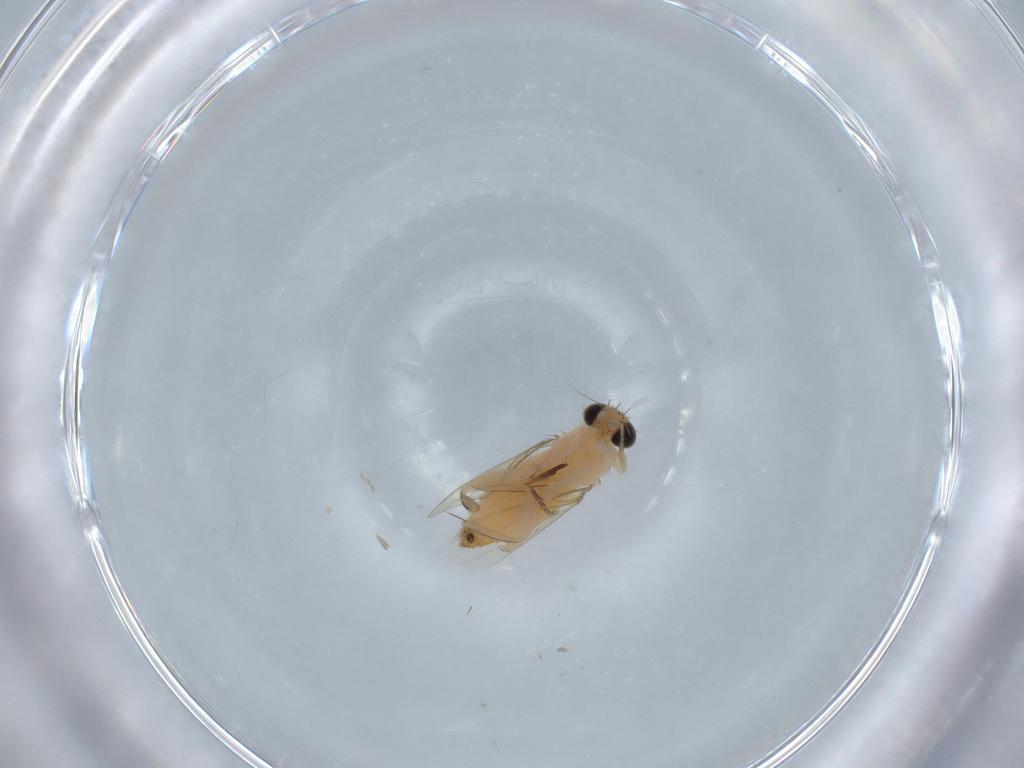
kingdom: Animalia
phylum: Arthropoda
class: Insecta
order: Diptera
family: Phoridae
